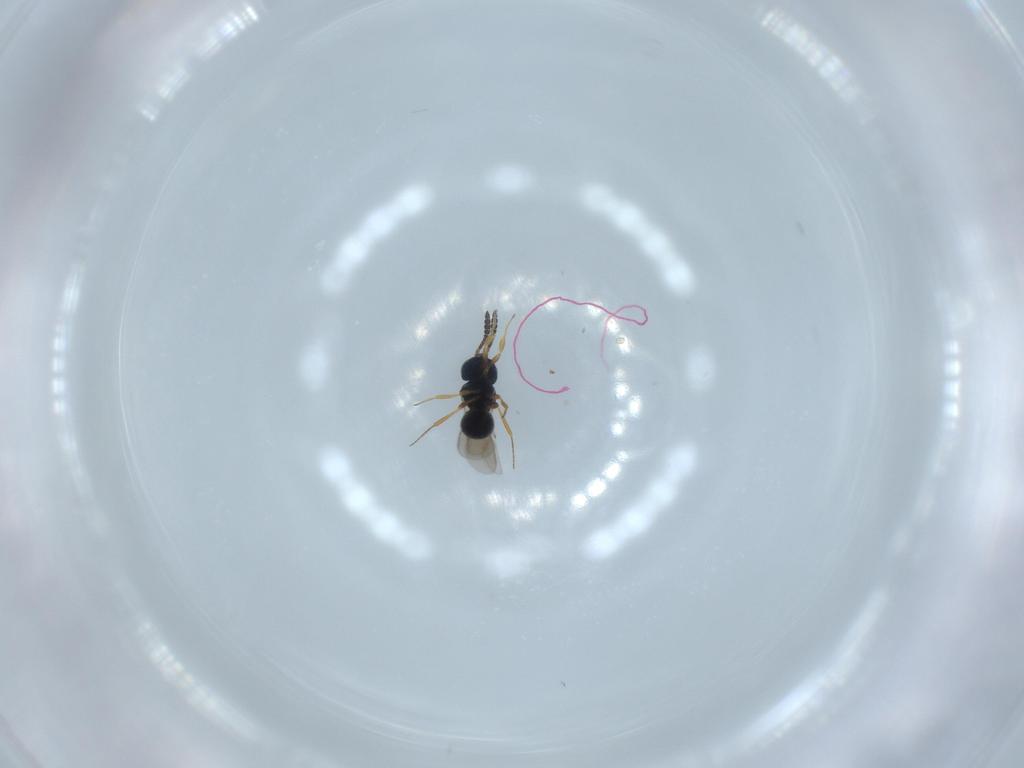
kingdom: Animalia
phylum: Arthropoda
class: Insecta
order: Hymenoptera
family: Scelionidae
